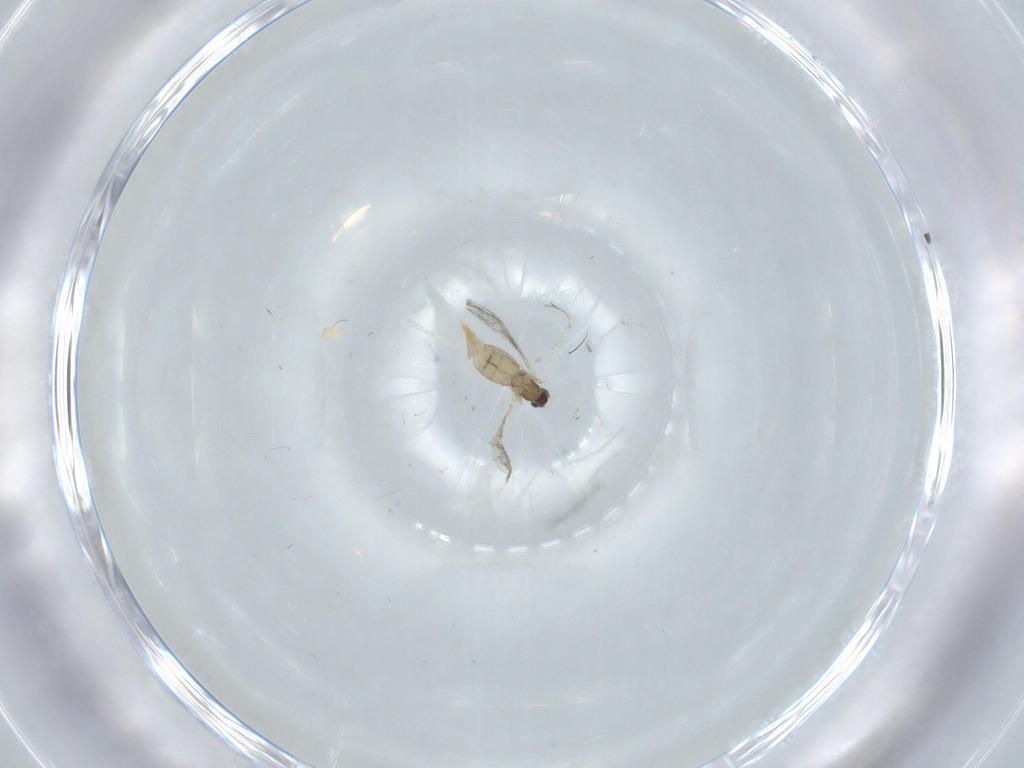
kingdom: Animalia
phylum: Arthropoda
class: Insecta
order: Diptera
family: Cecidomyiidae
